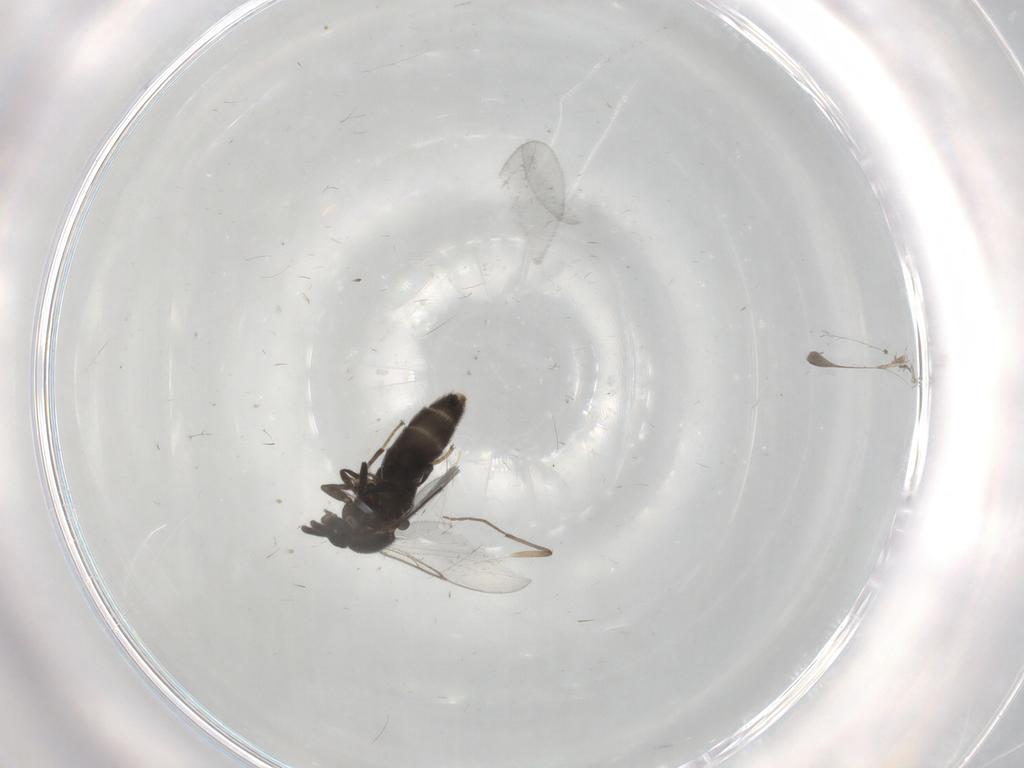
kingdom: Animalia
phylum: Arthropoda
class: Insecta
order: Diptera
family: Scatopsidae
